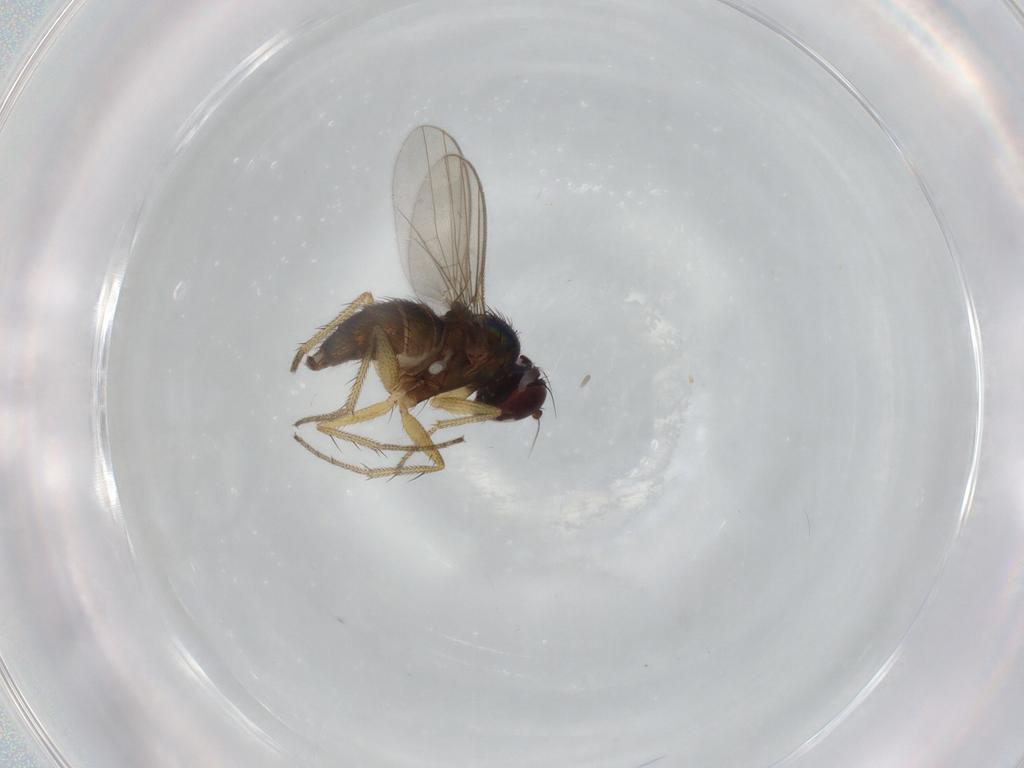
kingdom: Animalia
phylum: Arthropoda
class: Insecta
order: Diptera
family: Dolichopodidae
